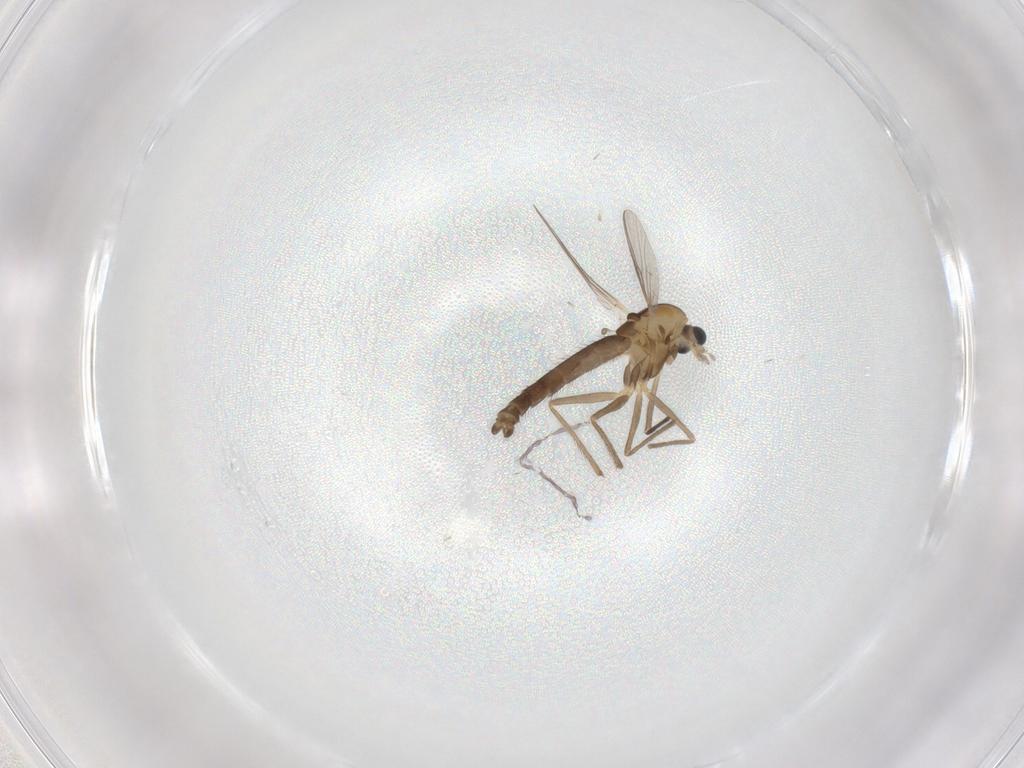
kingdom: Animalia
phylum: Arthropoda
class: Insecta
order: Diptera
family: Chironomidae
